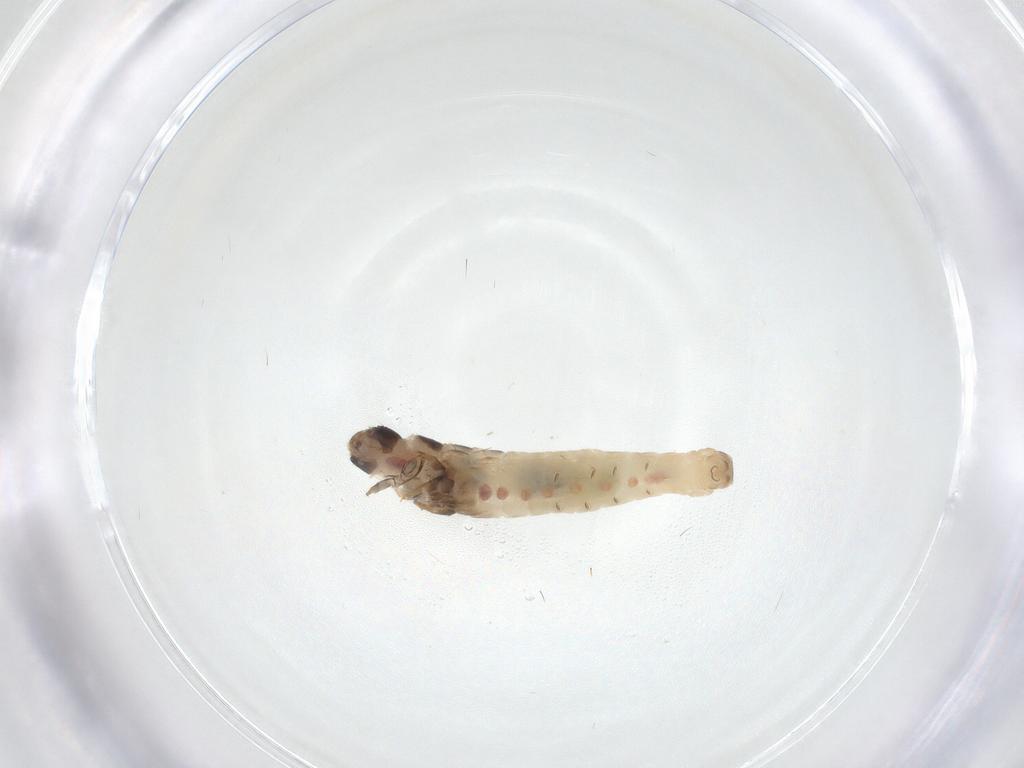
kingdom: Animalia
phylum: Arthropoda
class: Insecta
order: Lepidoptera
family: Psychidae
